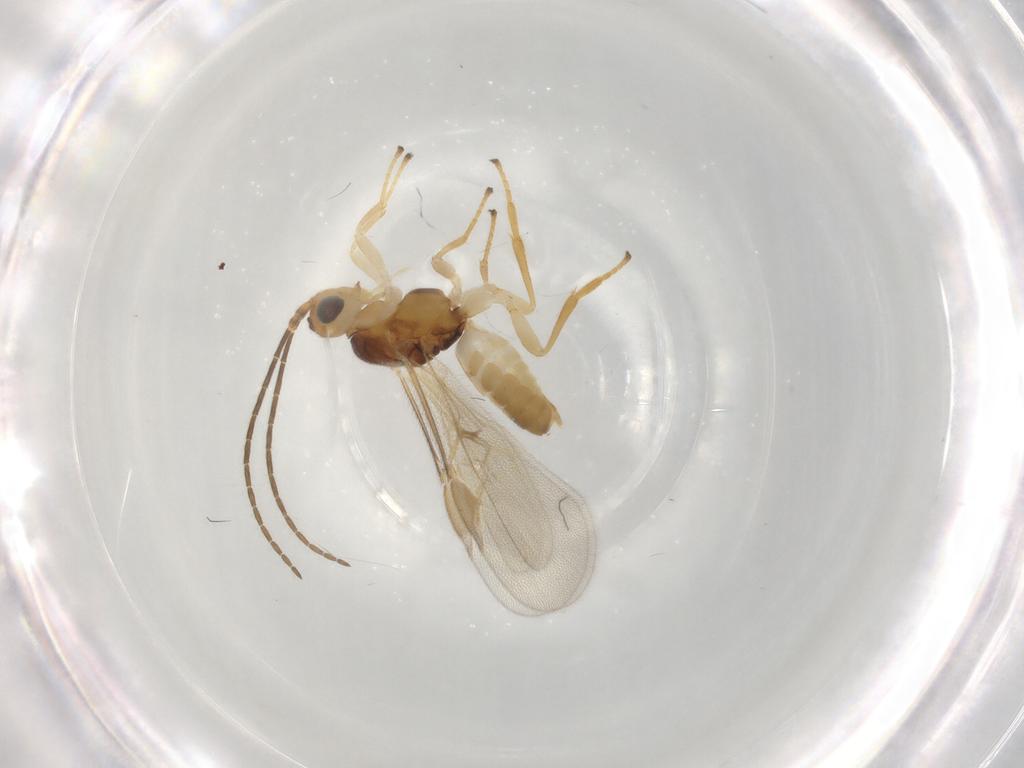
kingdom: Animalia
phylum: Arthropoda
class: Insecta
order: Hymenoptera
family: Braconidae
